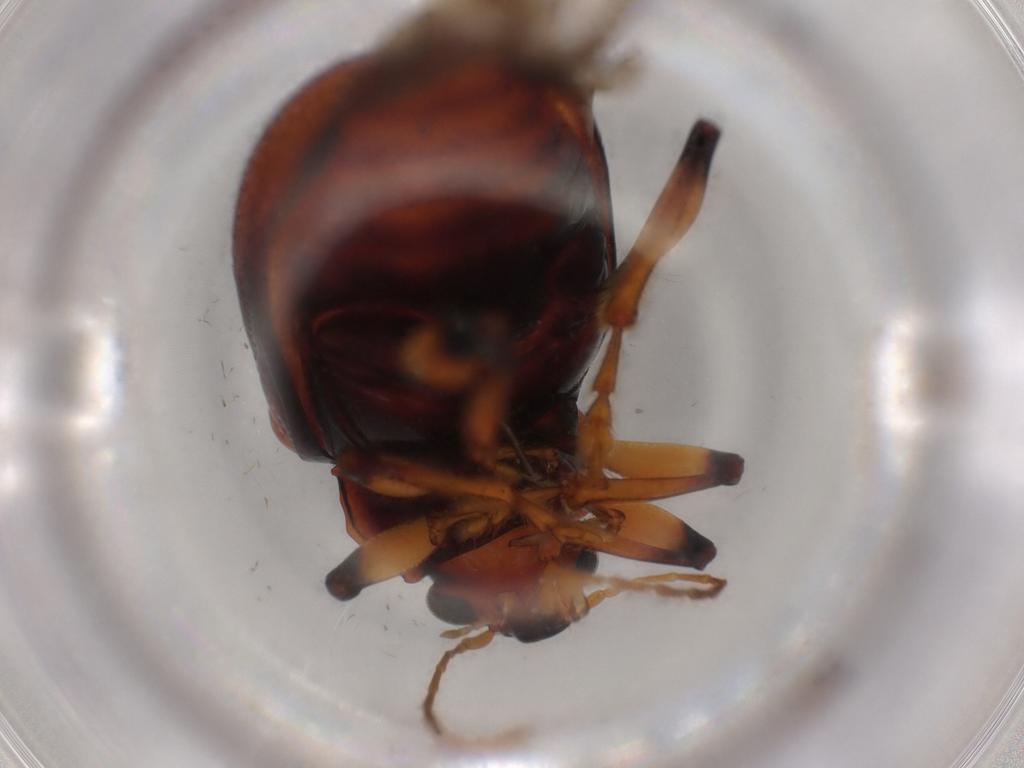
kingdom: Animalia
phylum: Arthropoda
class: Insecta
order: Coleoptera
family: Chrysomelidae
